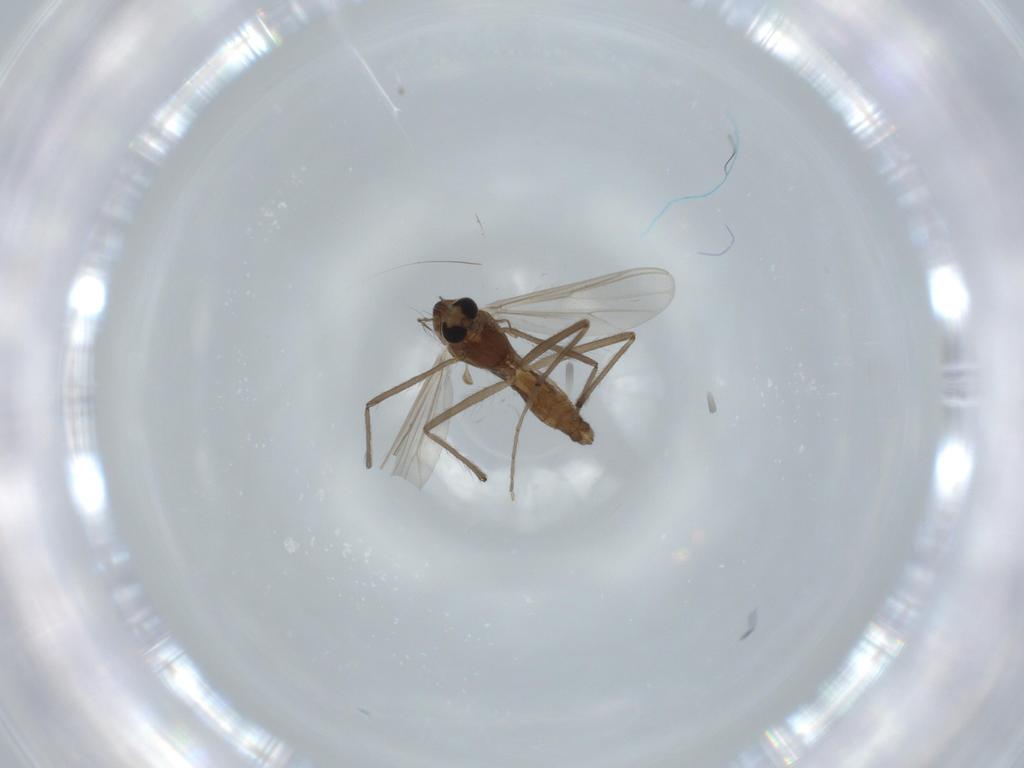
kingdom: Animalia
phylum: Arthropoda
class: Insecta
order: Diptera
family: Chironomidae
